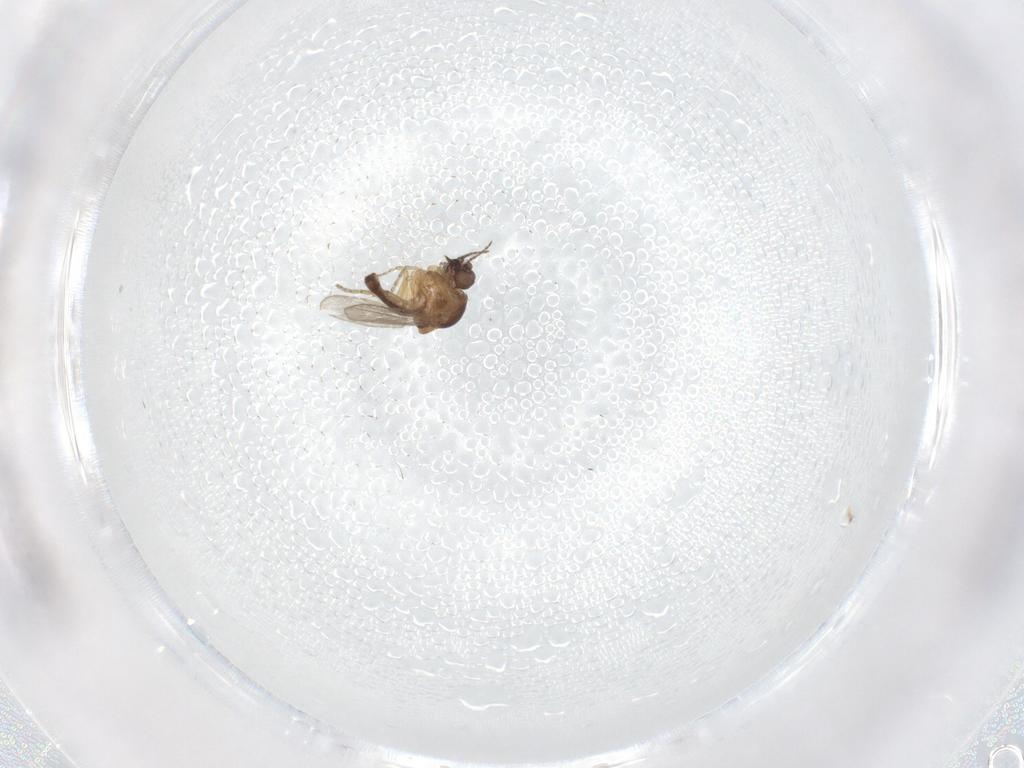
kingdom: Animalia
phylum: Arthropoda
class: Insecta
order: Diptera
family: Ceratopogonidae
